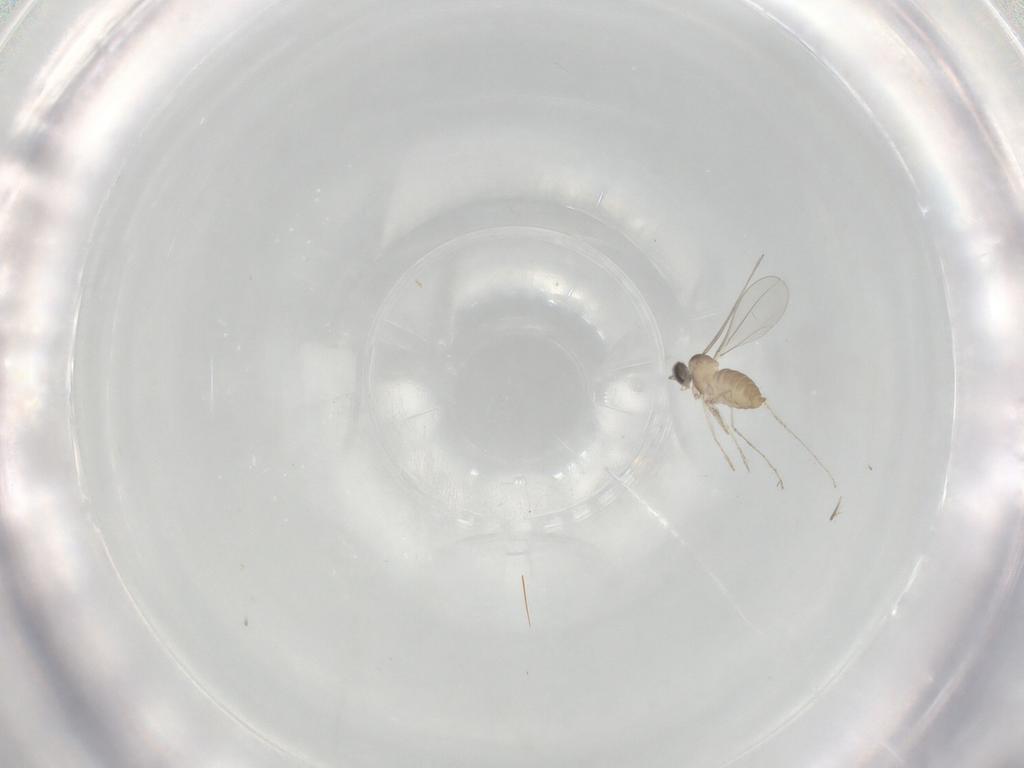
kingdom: Animalia
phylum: Arthropoda
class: Insecta
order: Diptera
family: Cecidomyiidae
